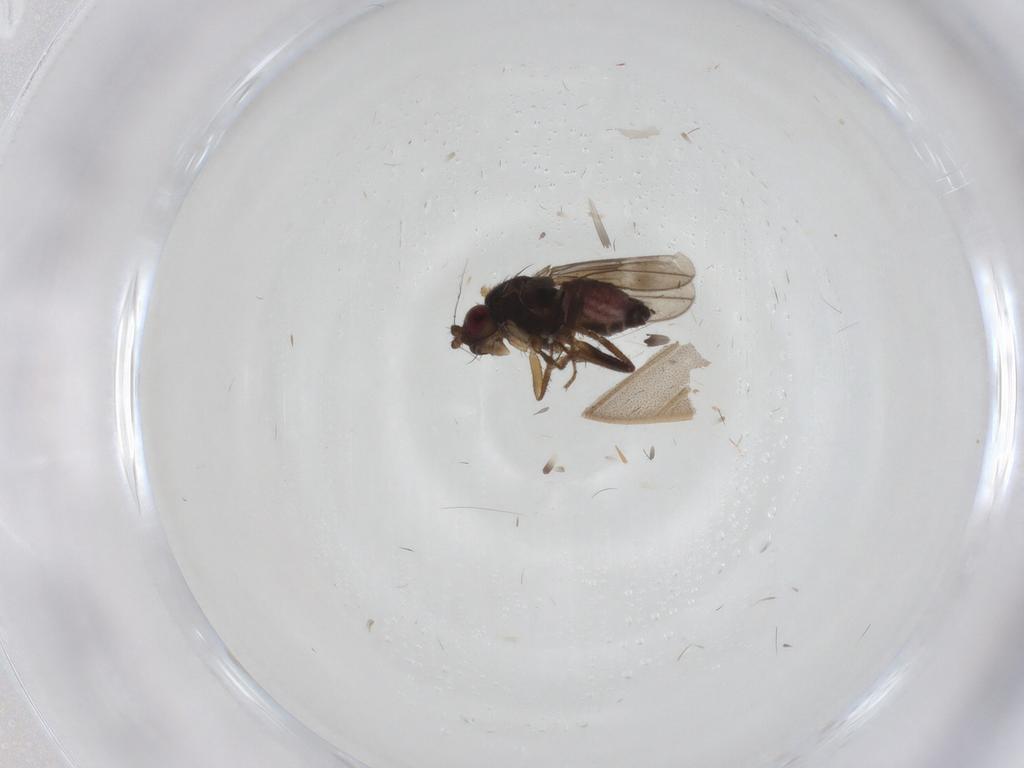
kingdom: Animalia
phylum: Arthropoda
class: Insecta
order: Diptera
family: Sphaeroceridae
